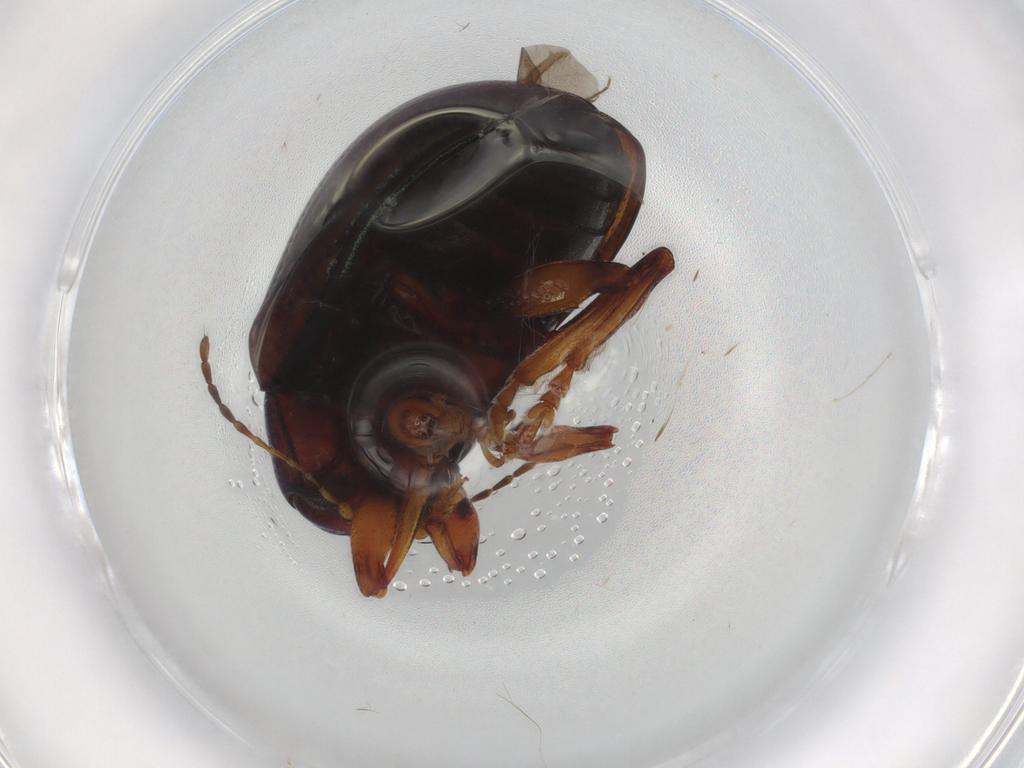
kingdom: Animalia
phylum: Arthropoda
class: Insecta
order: Coleoptera
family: Chrysomelidae
